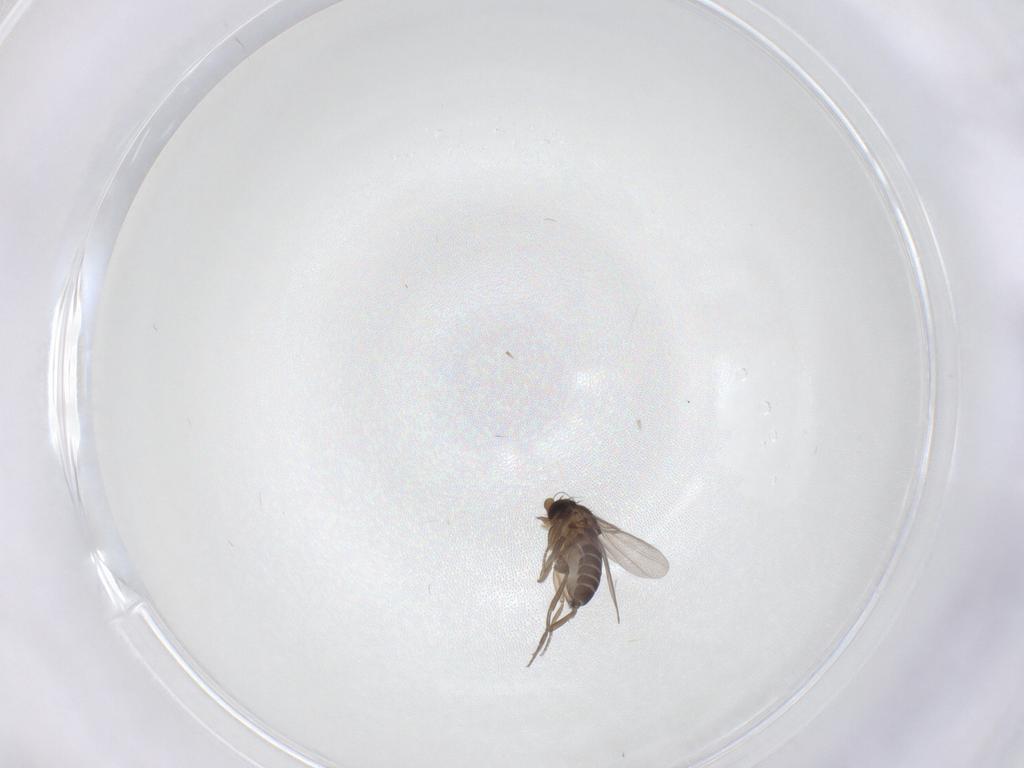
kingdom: Animalia
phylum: Arthropoda
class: Insecta
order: Diptera
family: Phoridae
